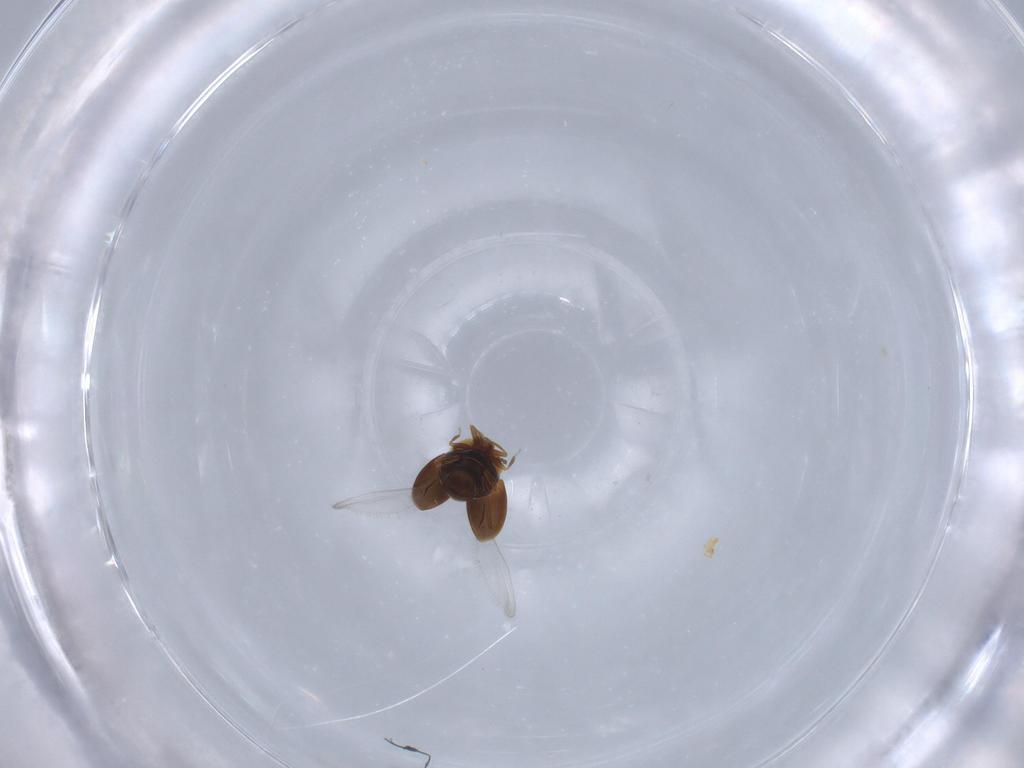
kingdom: Animalia
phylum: Arthropoda
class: Insecta
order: Coleoptera
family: Corylophidae
